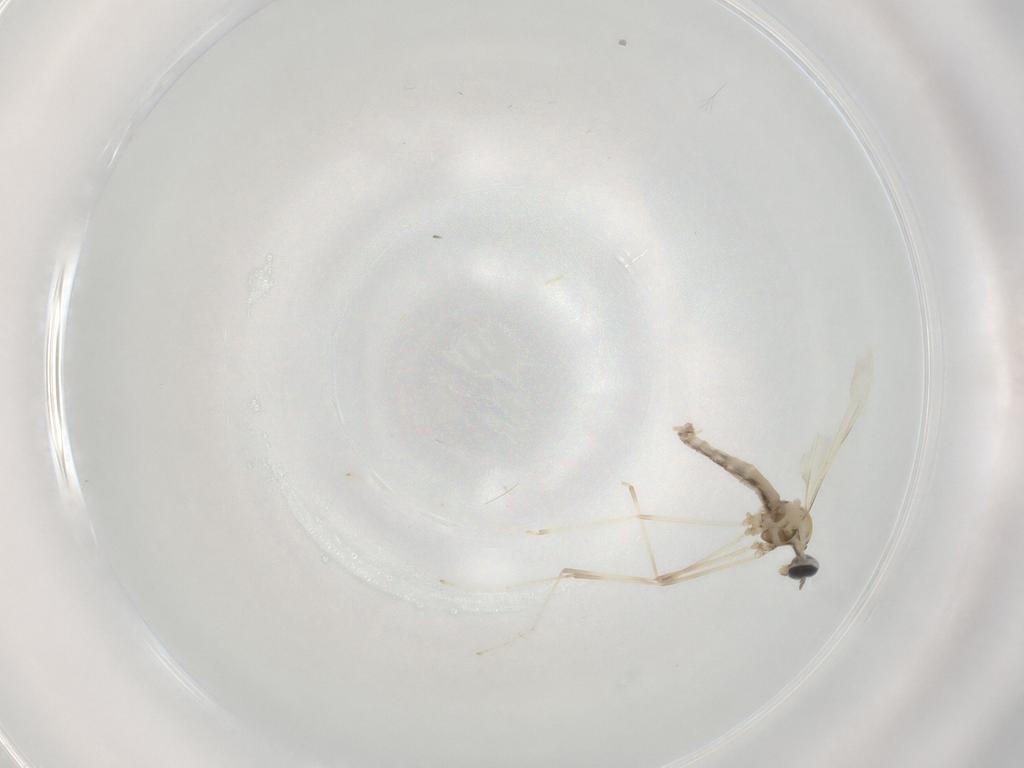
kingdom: Animalia
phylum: Arthropoda
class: Insecta
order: Diptera
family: Cecidomyiidae
